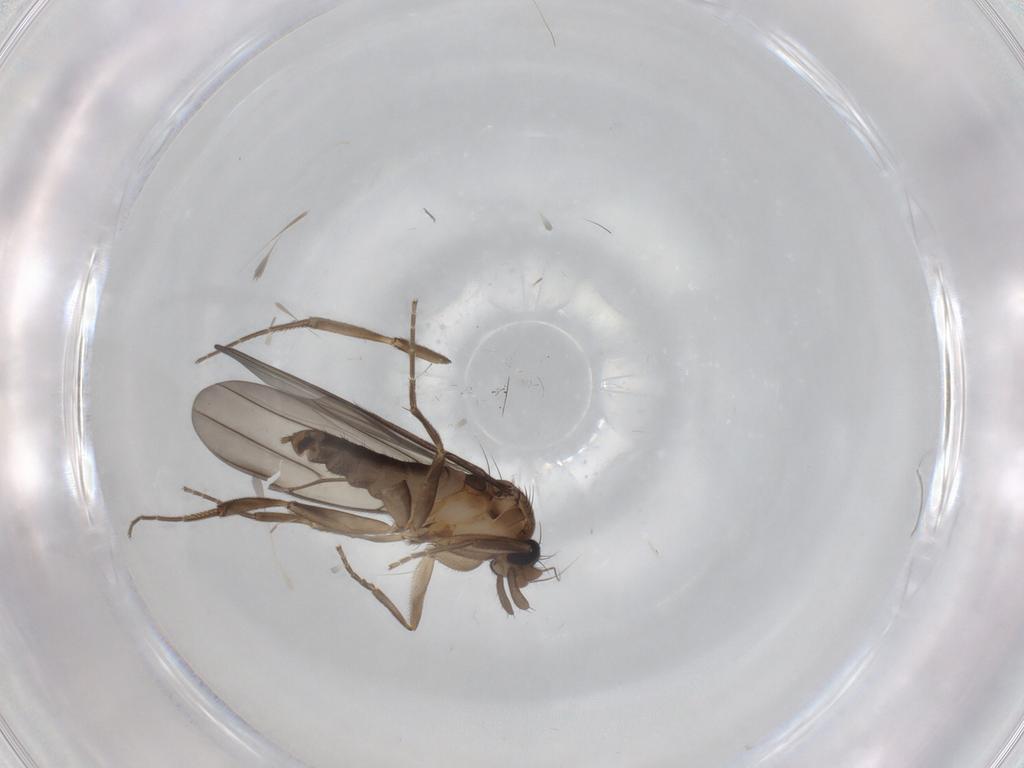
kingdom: Animalia
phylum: Arthropoda
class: Insecta
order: Diptera
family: Phoridae
